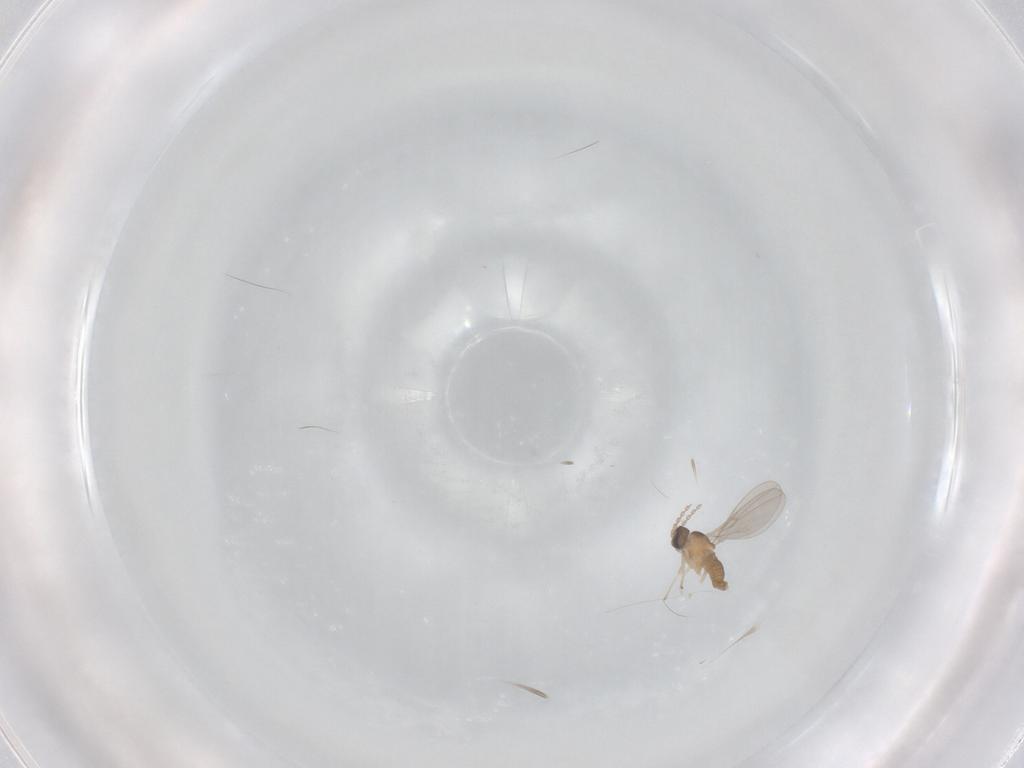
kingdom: Animalia
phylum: Arthropoda
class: Insecta
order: Diptera
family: Cecidomyiidae
